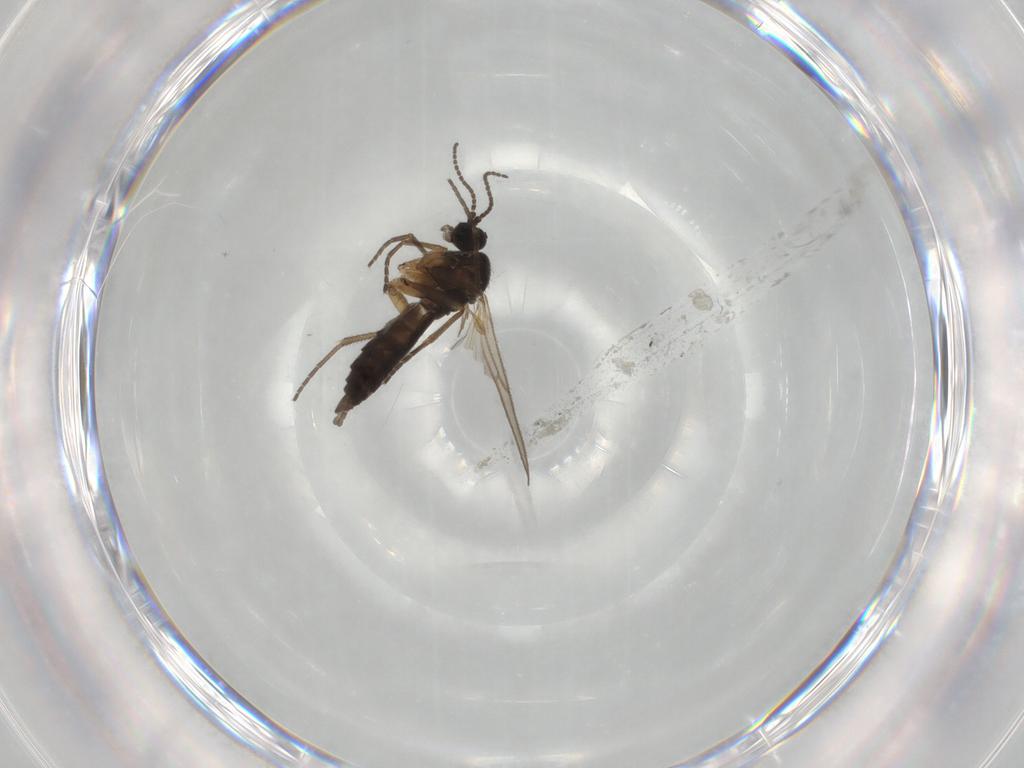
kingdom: Animalia
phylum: Arthropoda
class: Insecta
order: Diptera
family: Sciaridae
